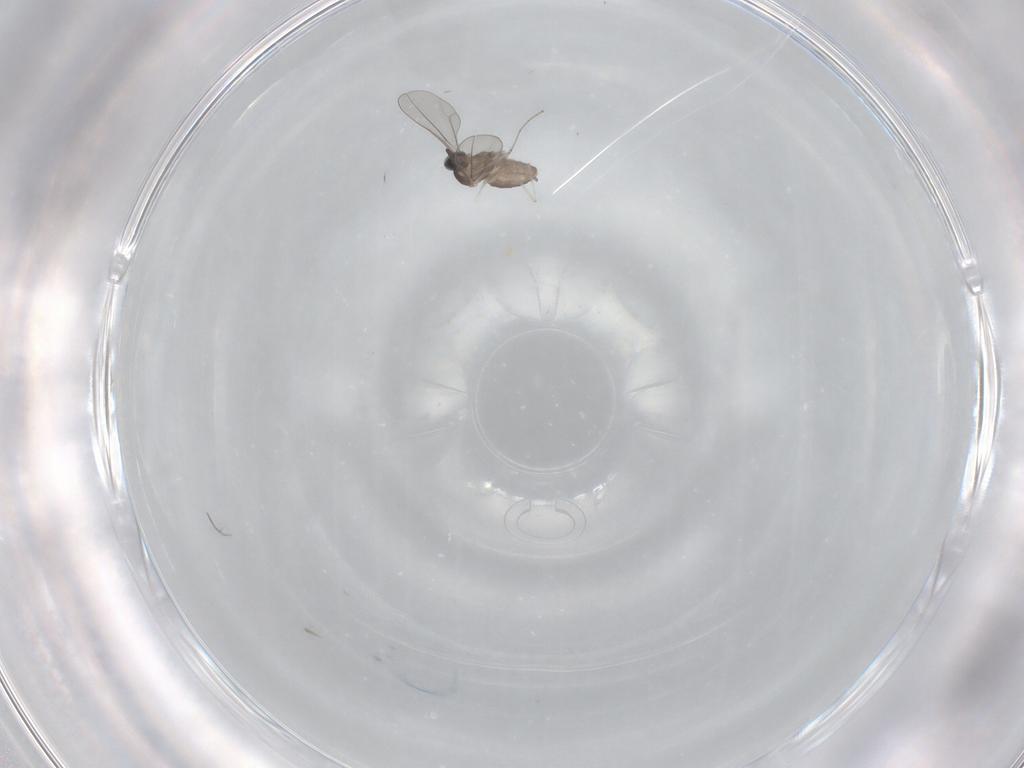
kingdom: Animalia
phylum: Arthropoda
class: Insecta
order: Diptera
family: Cecidomyiidae
